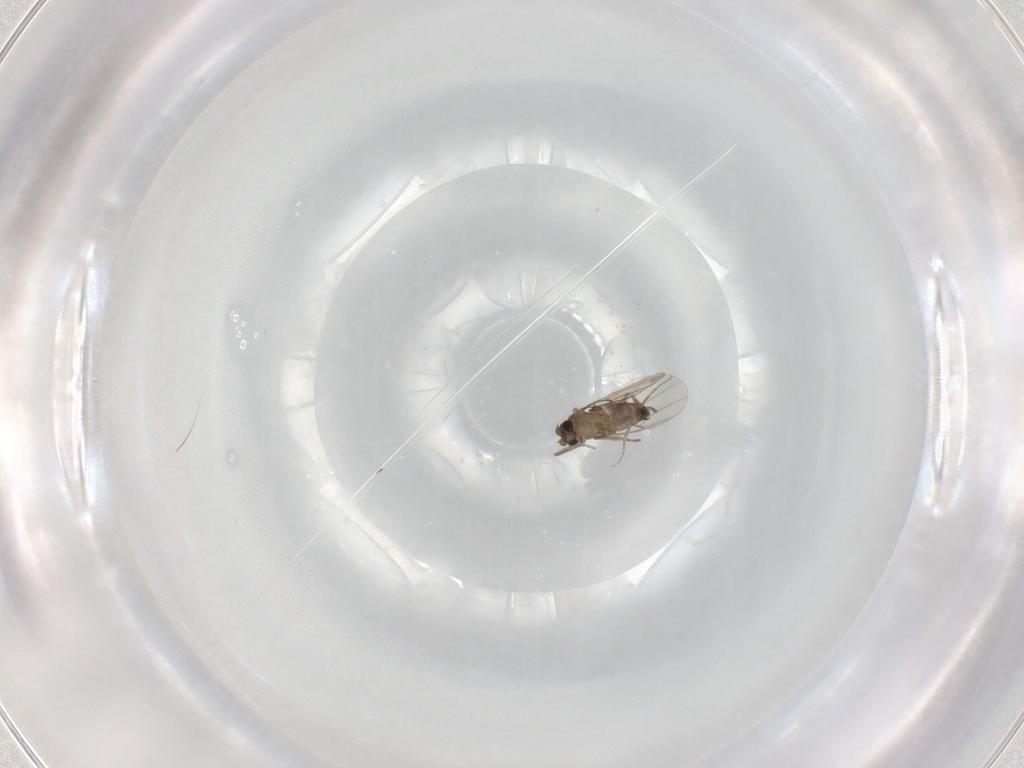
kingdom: Animalia
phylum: Arthropoda
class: Insecta
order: Diptera
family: Phoridae
